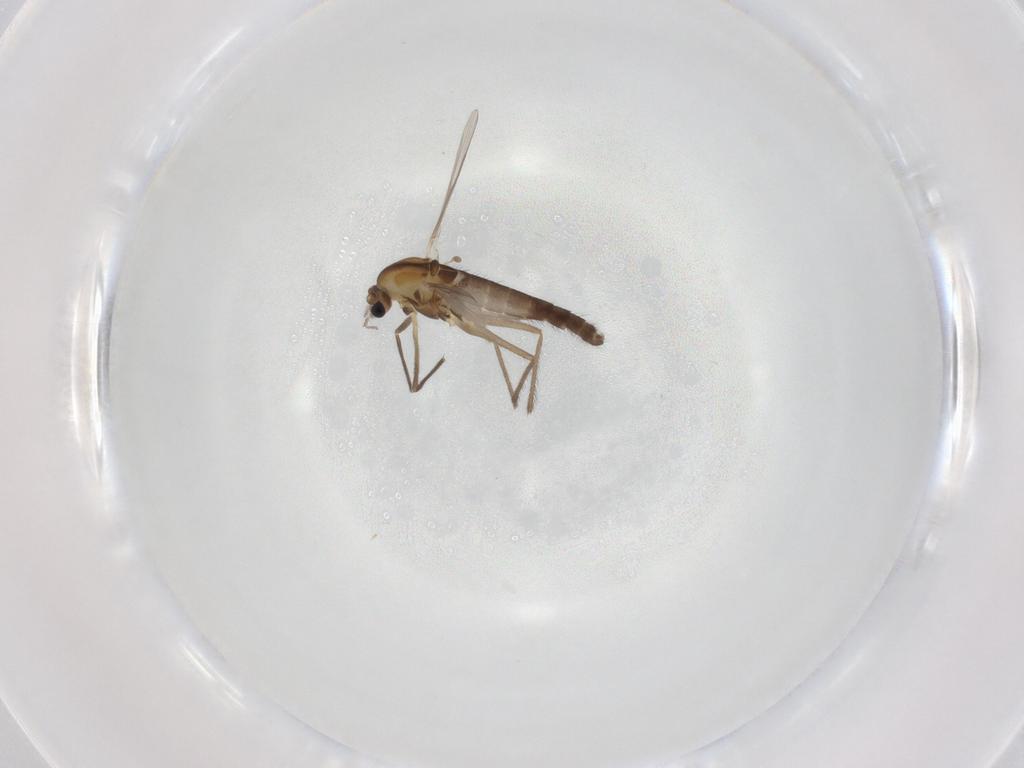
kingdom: Animalia
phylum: Arthropoda
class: Insecta
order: Diptera
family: Chironomidae
